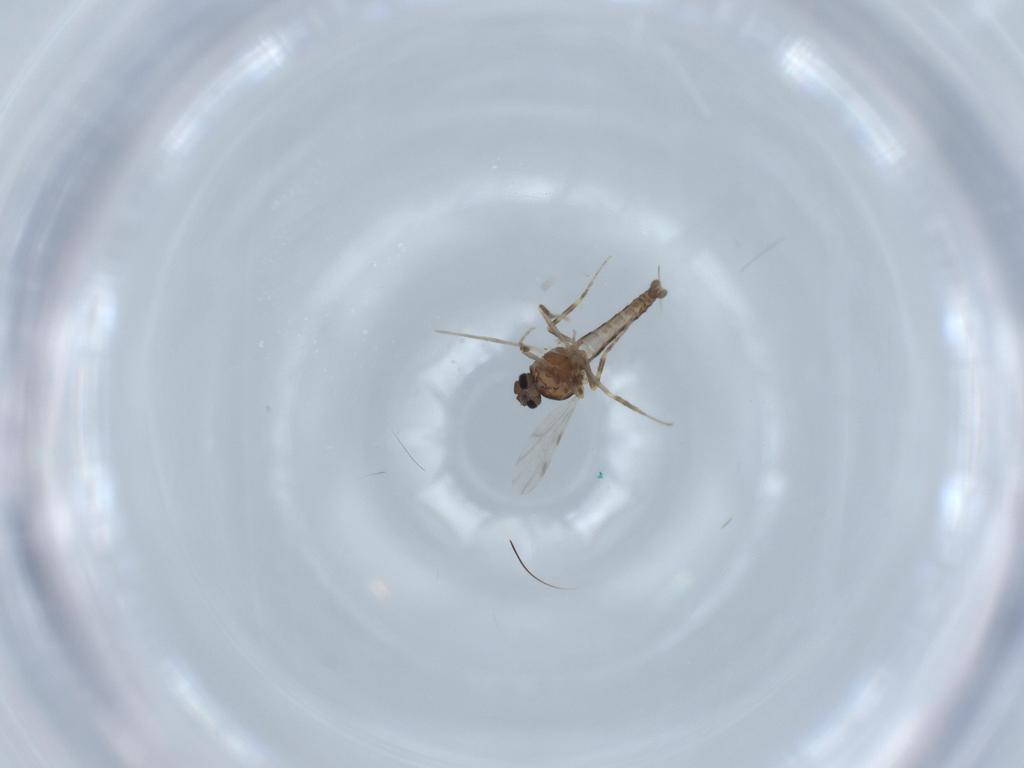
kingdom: Animalia
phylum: Arthropoda
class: Insecta
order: Diptera
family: Ceratopogonidae
